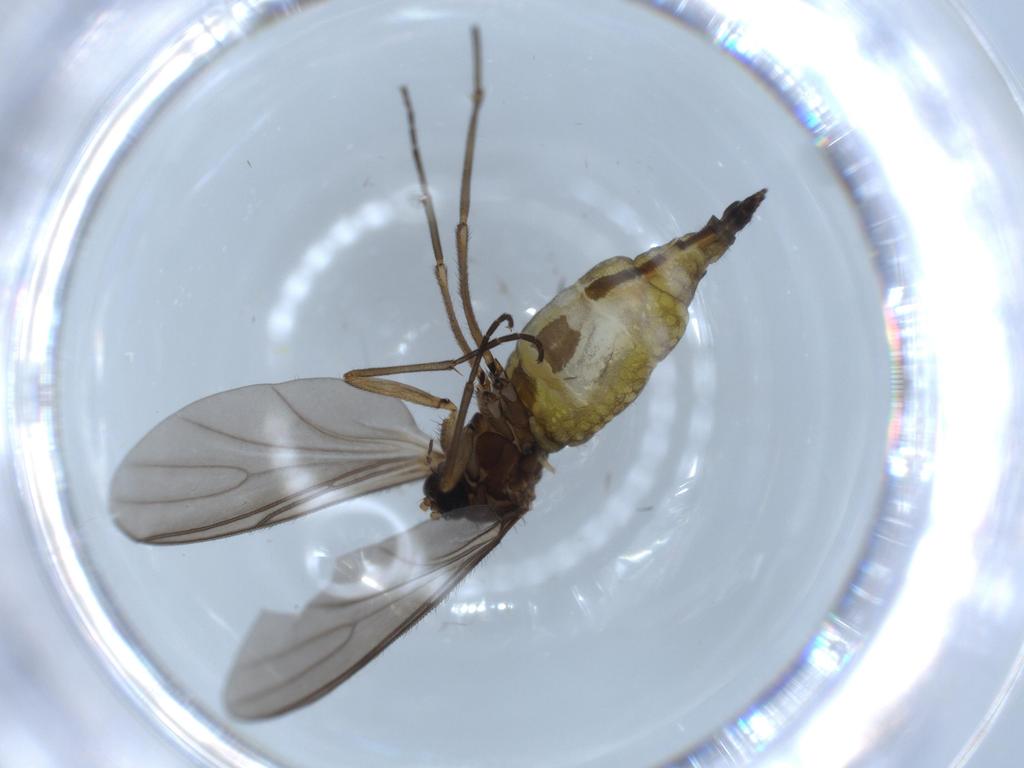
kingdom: Animalia
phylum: Arthropoda
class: Insecta
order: Diptera
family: Sciaridae
